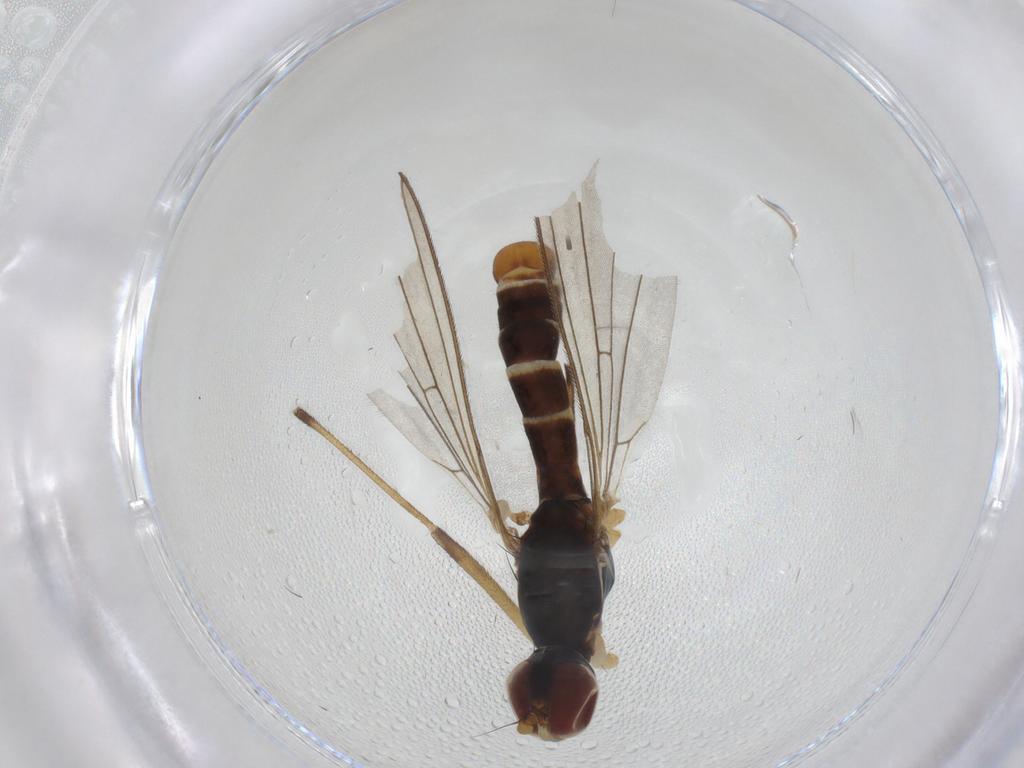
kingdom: Animalia
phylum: Arthropoda
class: Insecta
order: Diptera
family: Micropezidae
